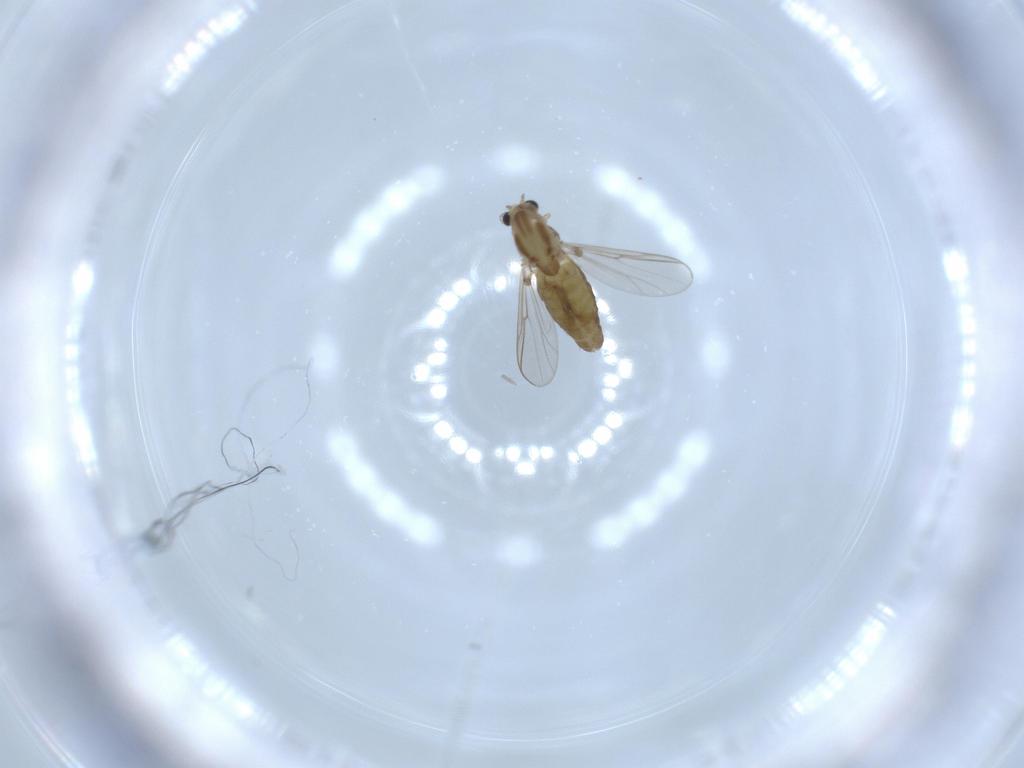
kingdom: Animalia
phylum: Arthropoda
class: Insecta
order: Diptera
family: Chironomidae
